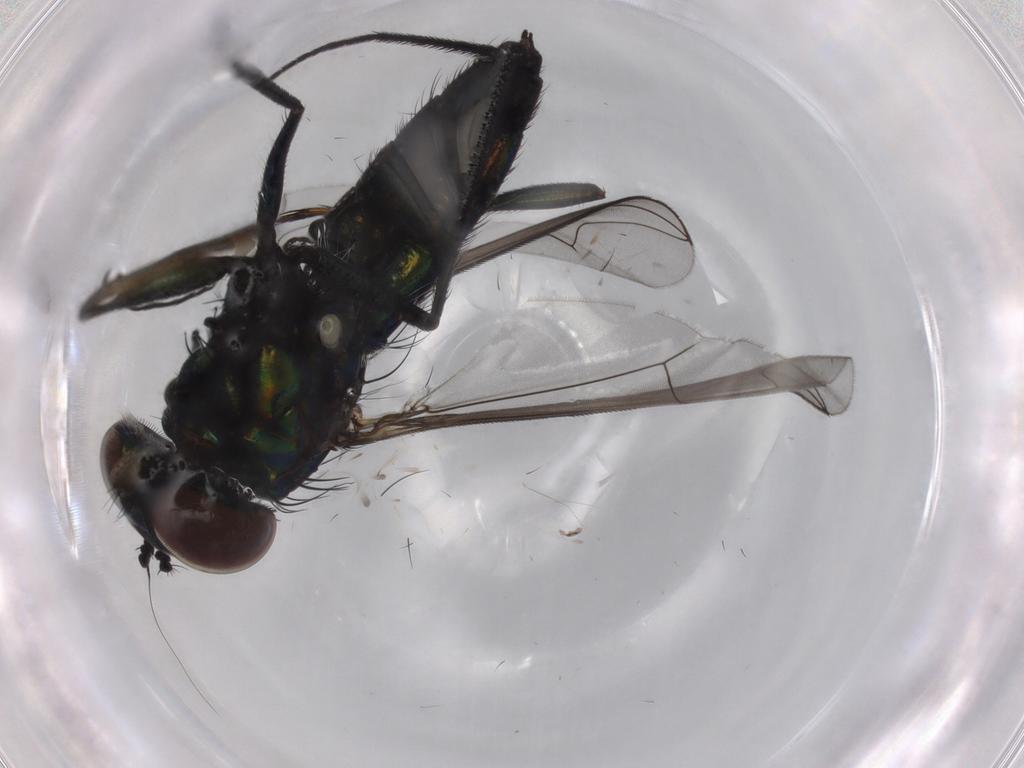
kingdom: Animalia
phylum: Arthropoda
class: Insecta
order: Diptera
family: Dolichopodidae
